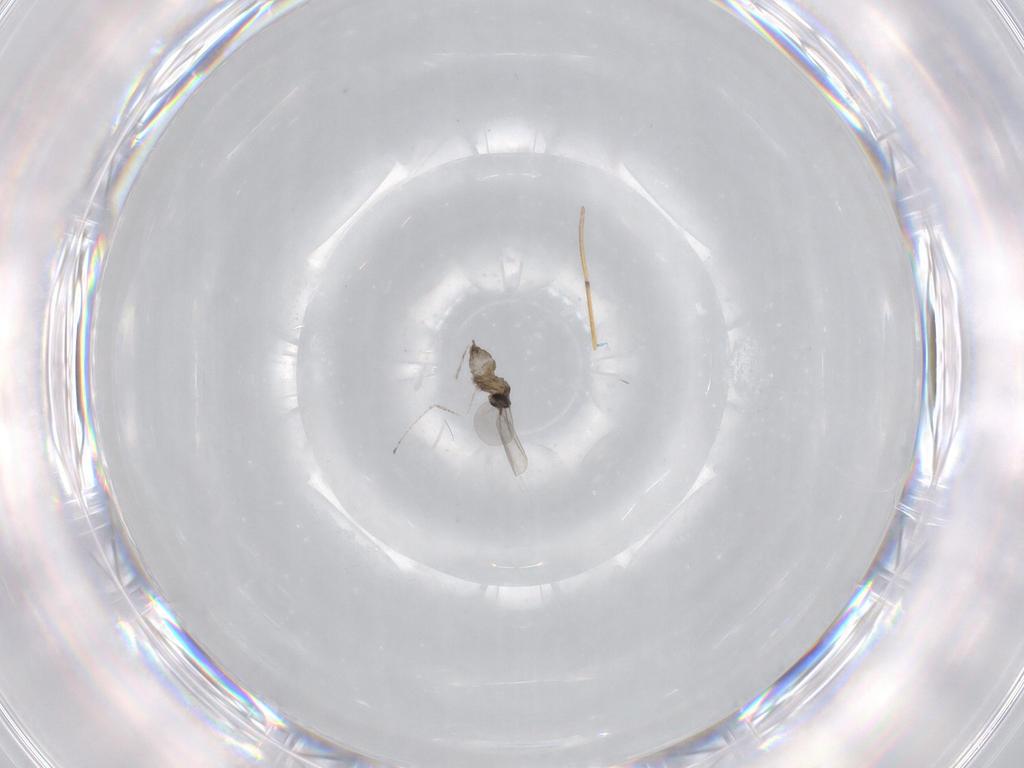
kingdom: Animalia
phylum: Arthropoda
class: Insecta
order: Diptera
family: Cecidomyiidae
